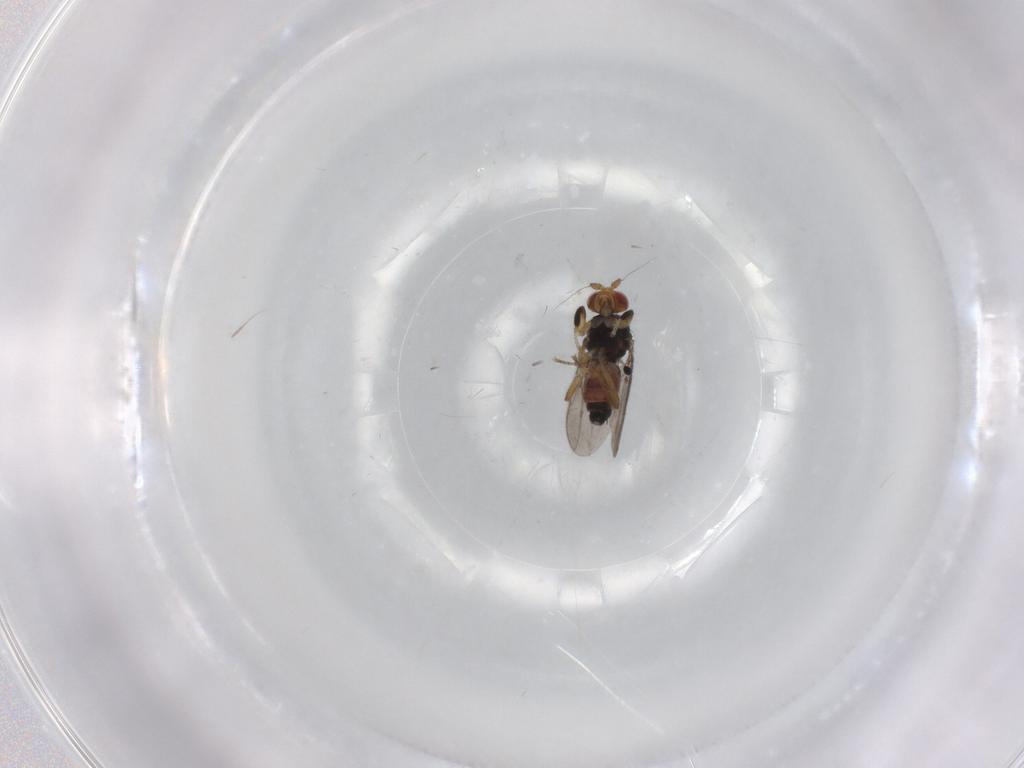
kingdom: Animalia
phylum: Arthropoda
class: Insecta
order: Diptera
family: Sphaeroceridae
